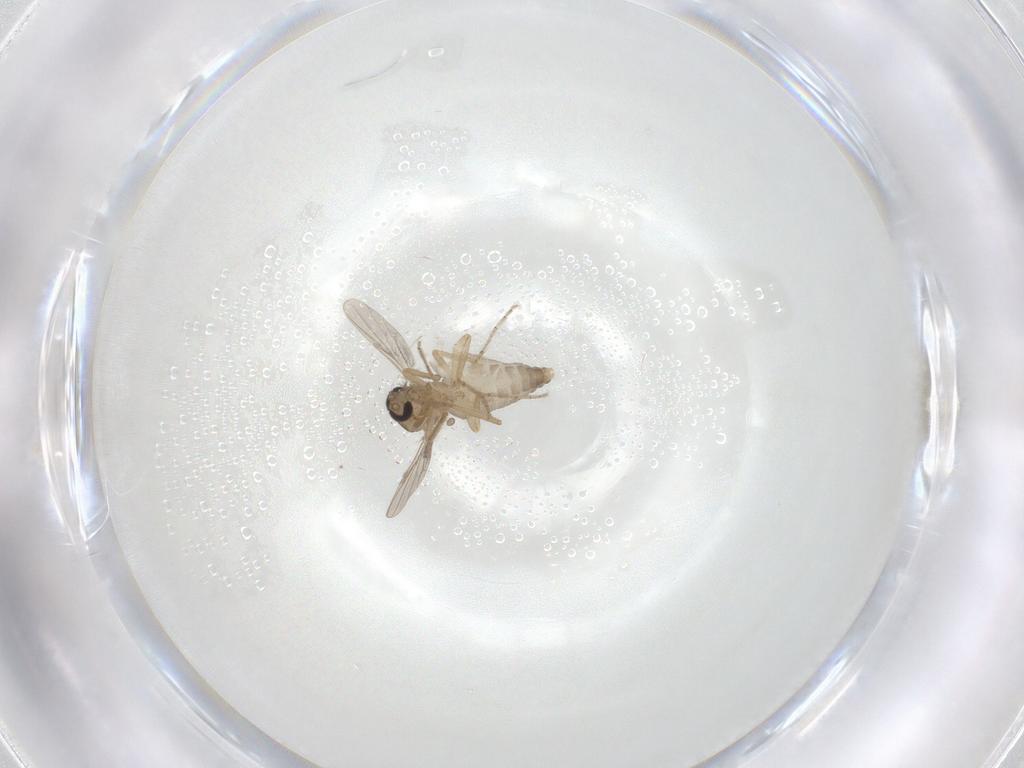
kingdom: Animalia
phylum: Arthropoda
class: Insecta
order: Diptera
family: Ceratopogonidae
